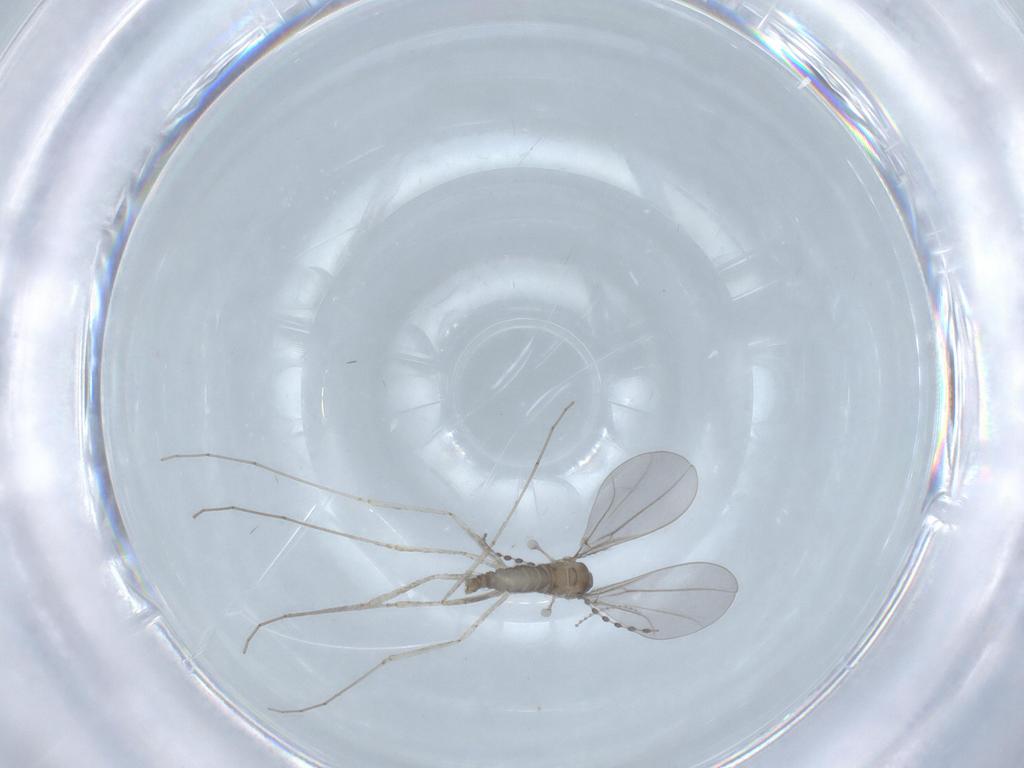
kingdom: Animalia
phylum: Arthropoda
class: Insecta
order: Diptera
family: Cecidomyiidae
